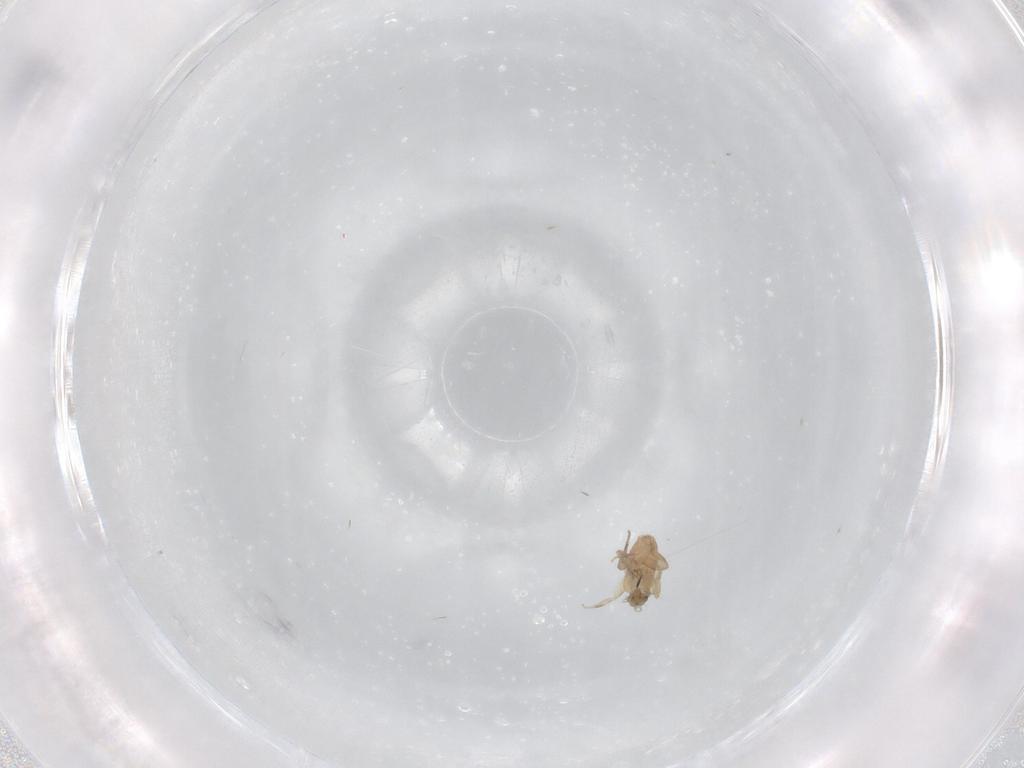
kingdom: Animalia
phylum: Arthropoda
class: Insecta
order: Diptera
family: Phoridae
